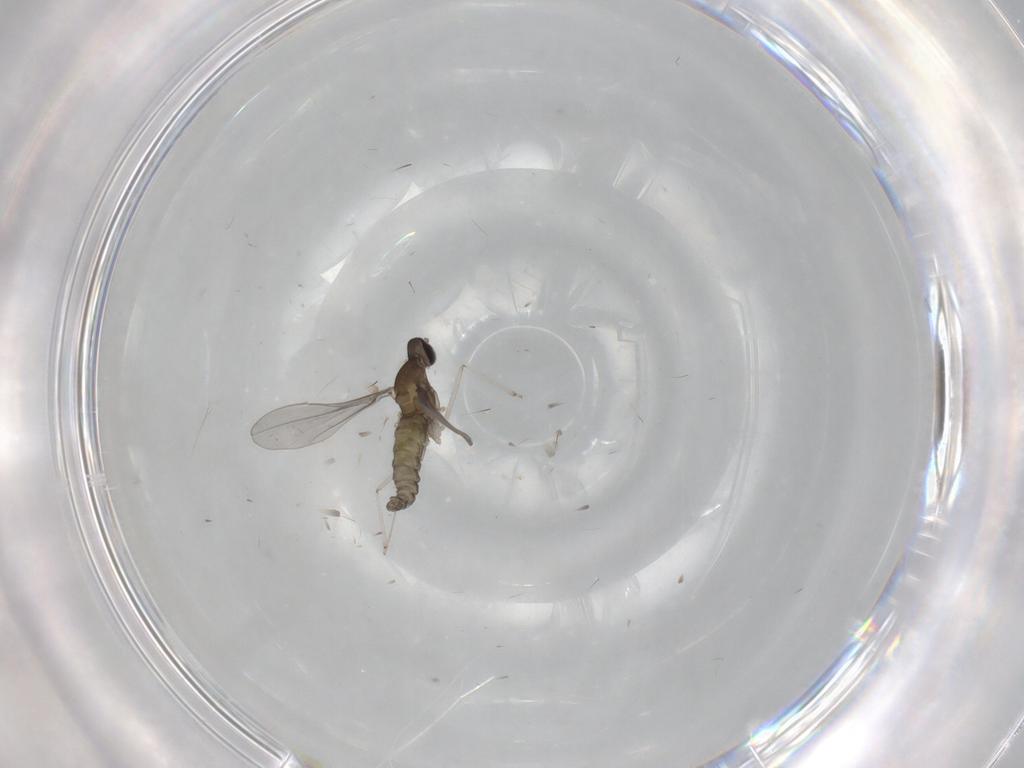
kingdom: Animalia
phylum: Arthropoda
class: Insecta
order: Diptera
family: Cecidomyiidae
